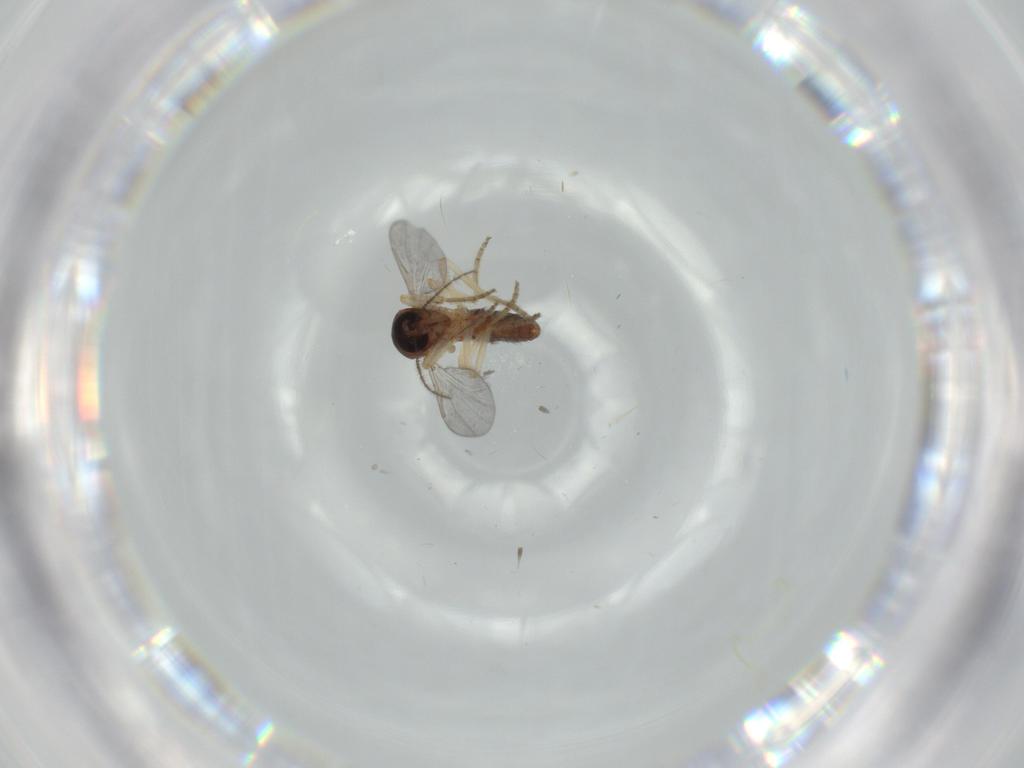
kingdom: Animalia
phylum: Arthropoda
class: Insecta
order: Diptera
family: Ceratopogonidae
